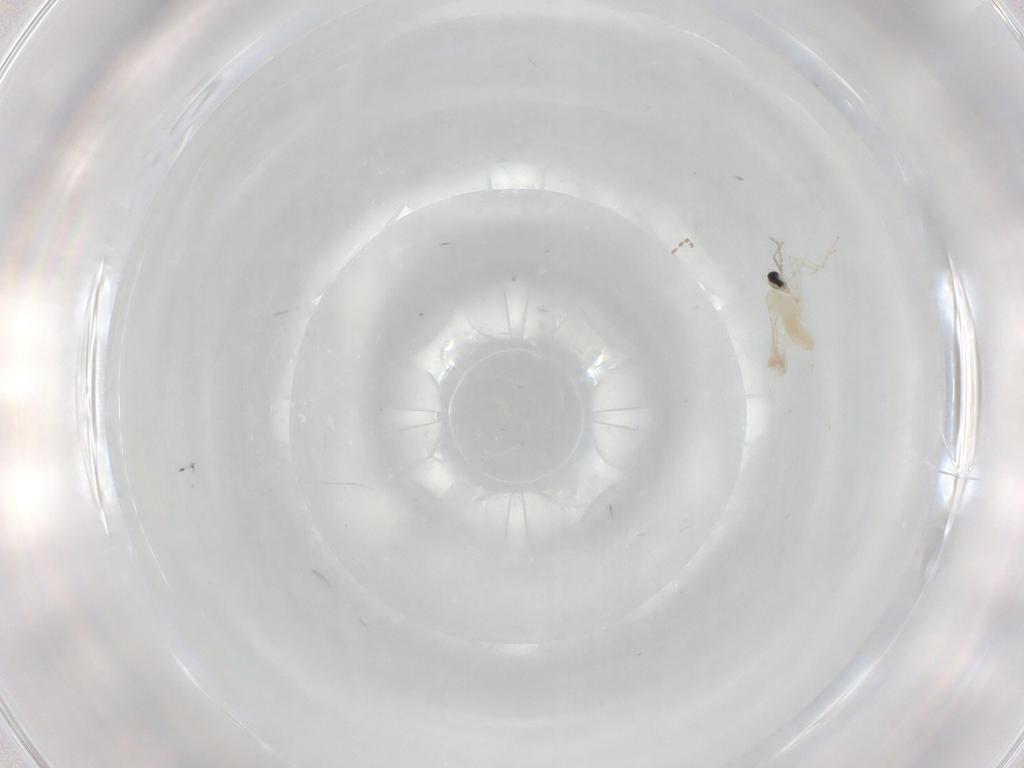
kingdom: Animalia
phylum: Arthropoda
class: Insecta
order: Diptera
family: Cecidomyiidae
